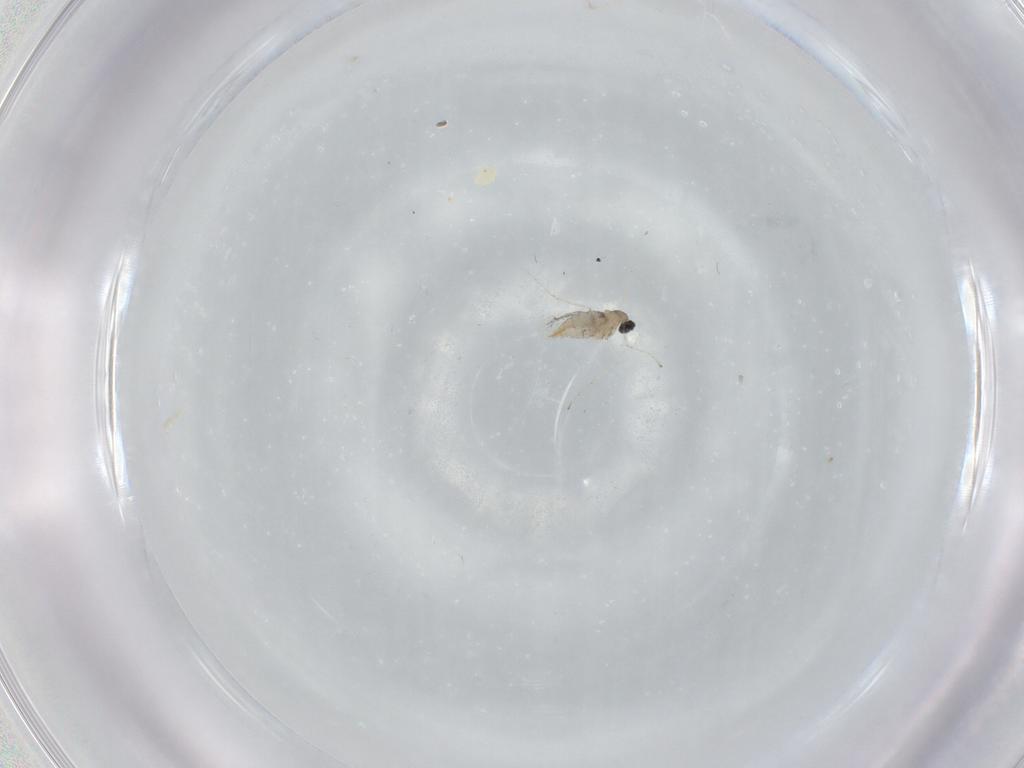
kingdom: Animalia
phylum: Arthropoda
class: Insecta
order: Diptera
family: Cecidomyiidae
